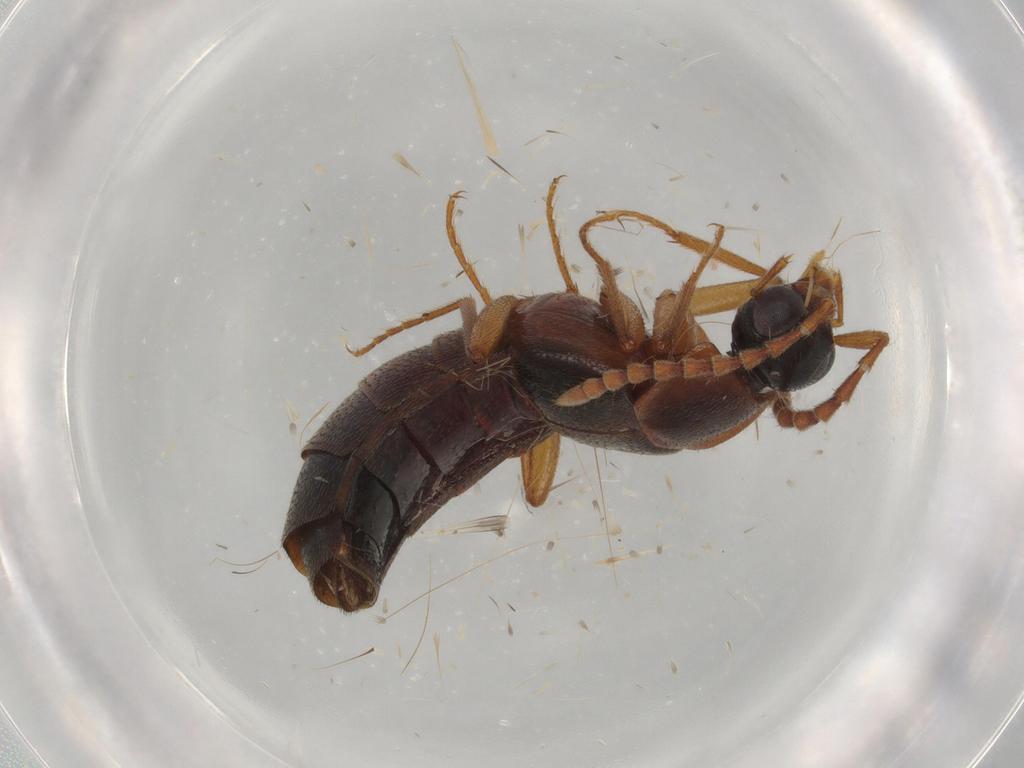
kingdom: Animalia
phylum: Arthropoda
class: Insecta
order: Coleoptera
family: Staphylinidae
